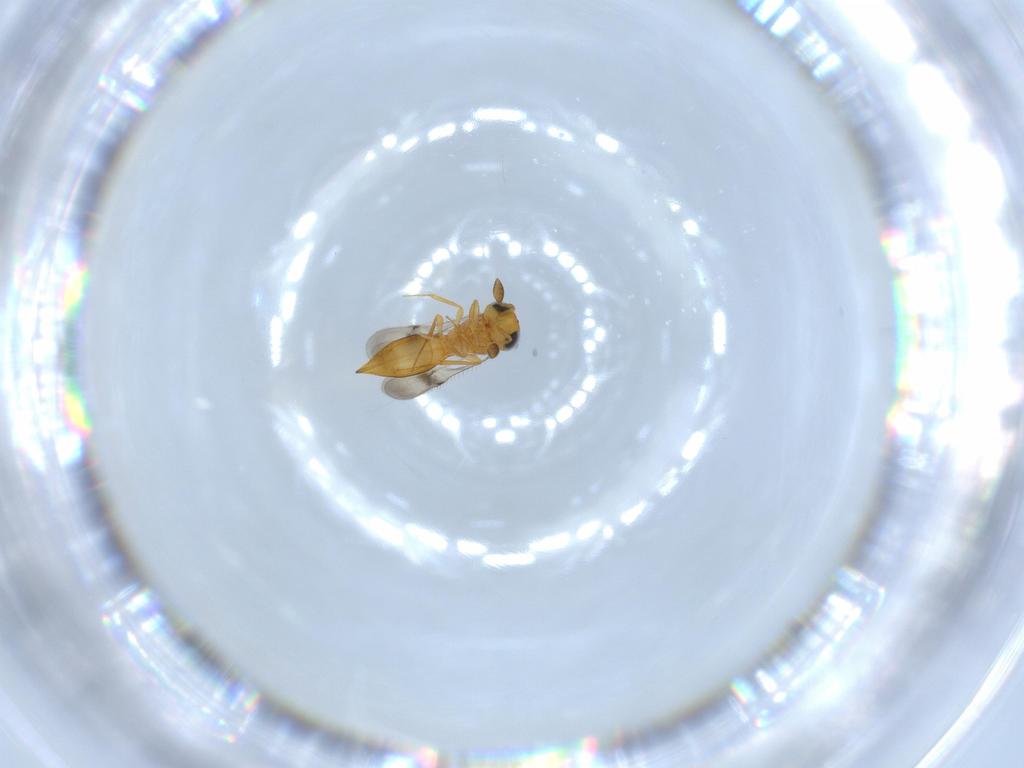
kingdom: Animalia
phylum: Arthropoda
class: Insecta
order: Hymenoptera
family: Scelionidae
